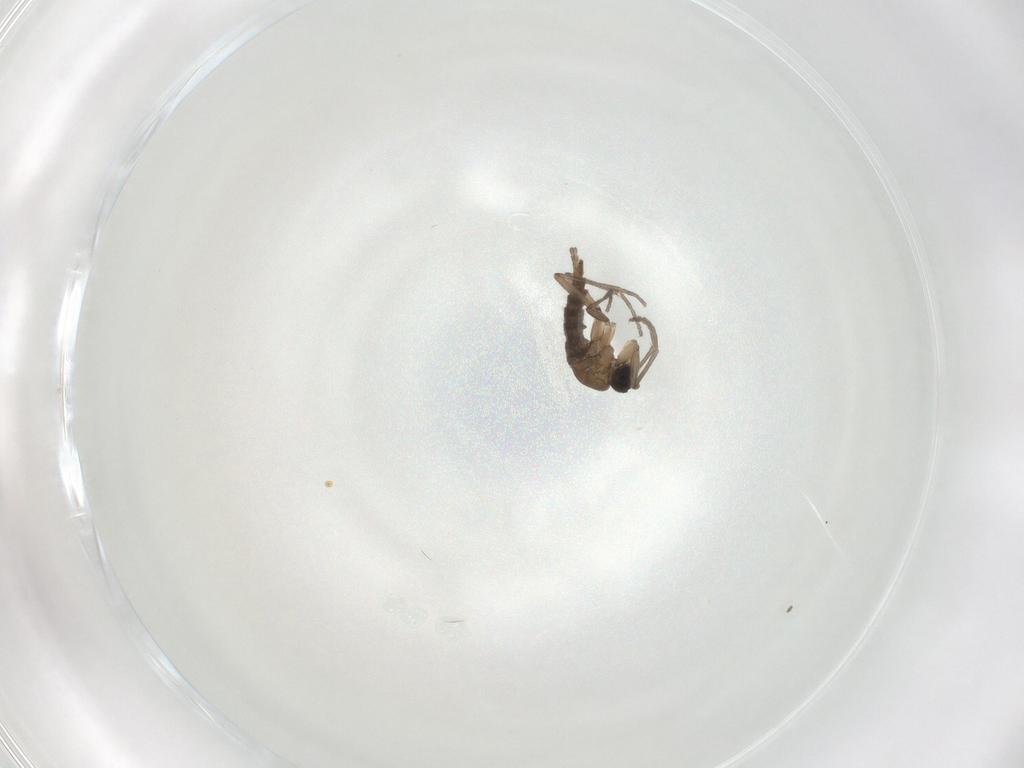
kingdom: Animalia
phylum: Arthropoda
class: Insecta
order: Diptera
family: Sciaridae
